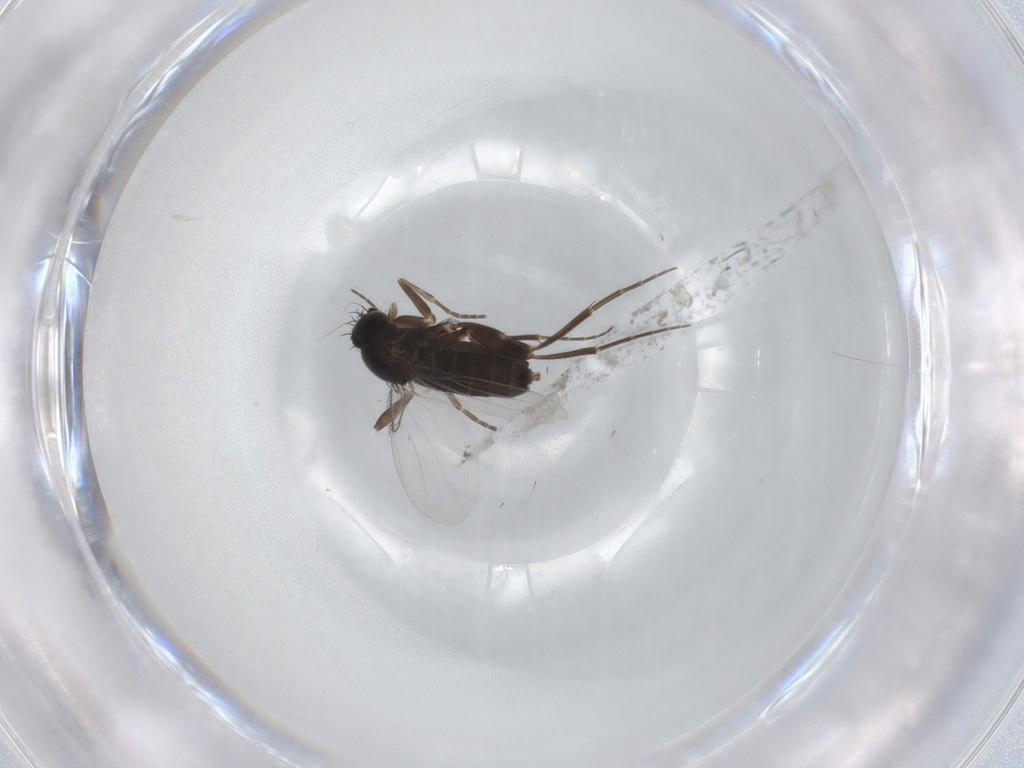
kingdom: Animalia
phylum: Arthropoda
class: Insecta
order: Diptera
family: Phoridae
